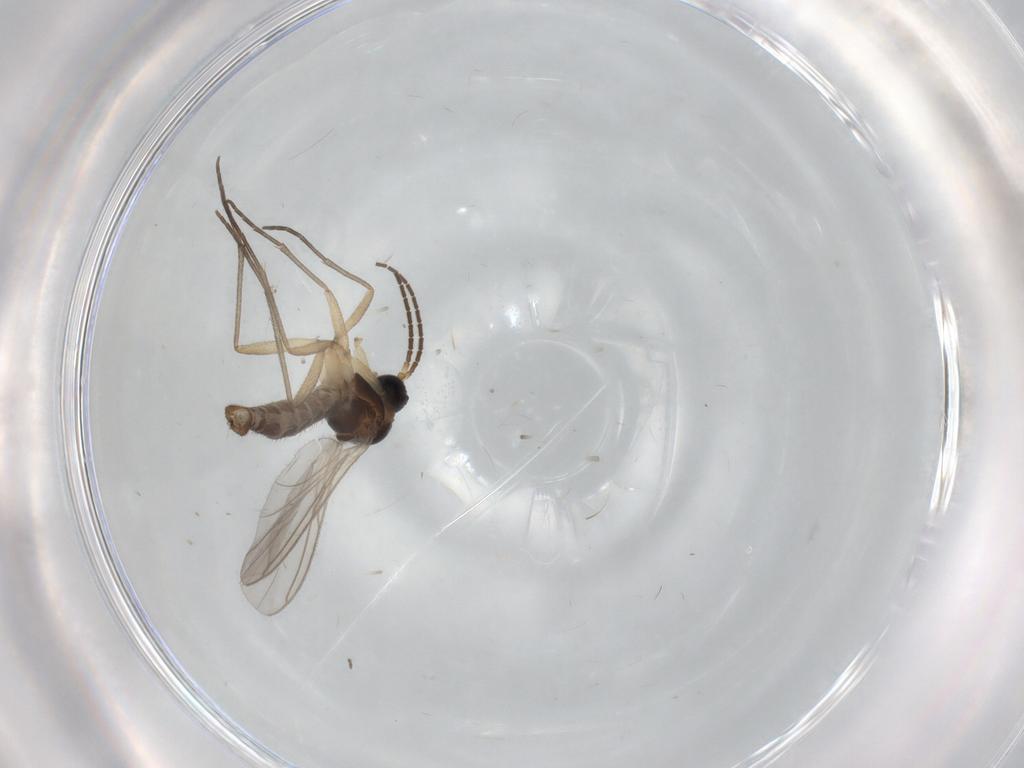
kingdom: Animalia
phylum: Arthropoda
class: Insecta
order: Diptera
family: Sciaridae
